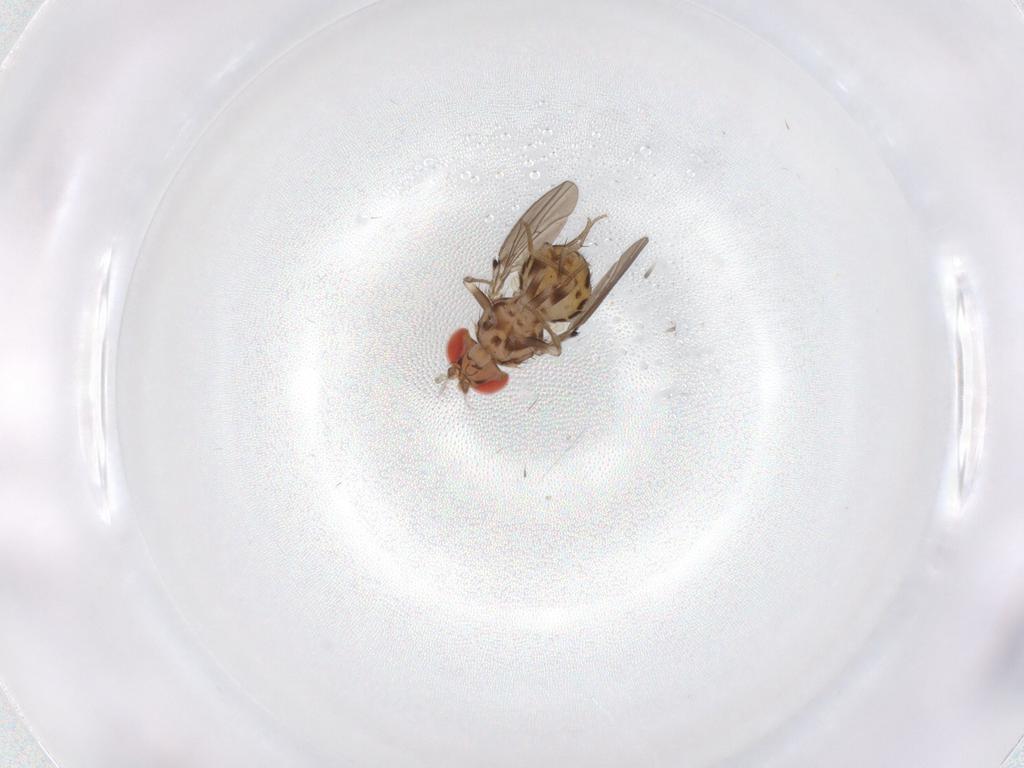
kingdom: Animalia
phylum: Arthropoda
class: Insecta
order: Diptera
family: Drosophilidae
